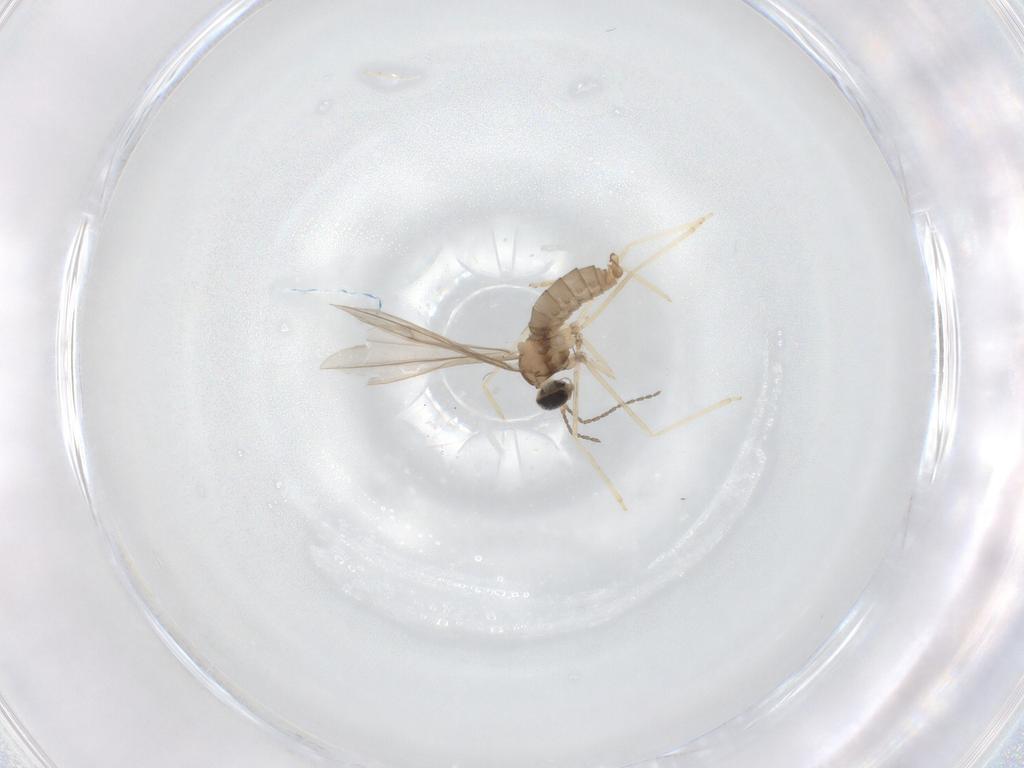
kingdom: Animalia
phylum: Arthropoda
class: Insecta
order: Diptera
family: Cecidomyiidae
